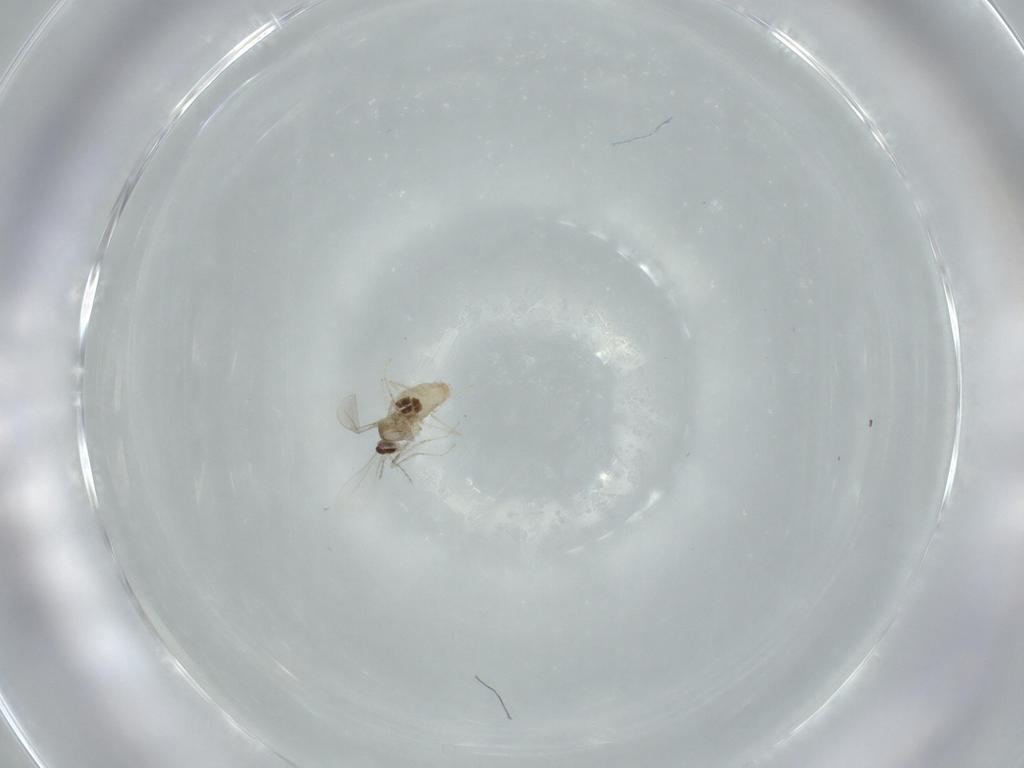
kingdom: Animalia
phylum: Arthropoda
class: Insecta
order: Diptera
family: Cecidomyiidae
